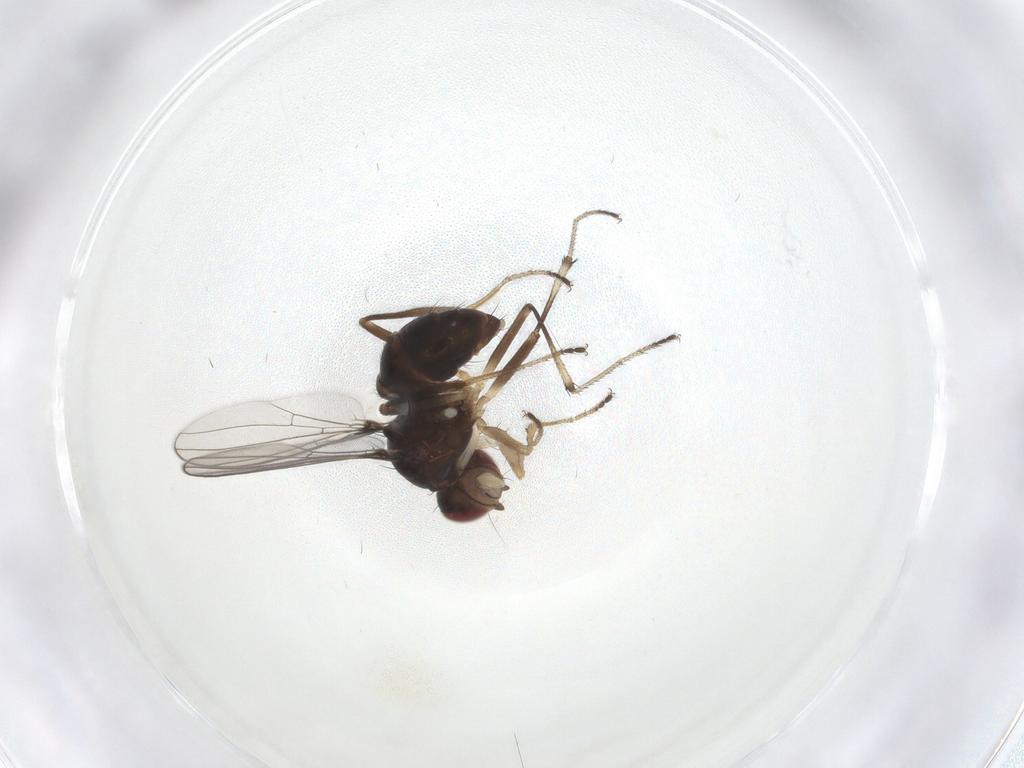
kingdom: Animalia
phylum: Arthropoda
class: Insecta
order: Diptera
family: Sepsidae
